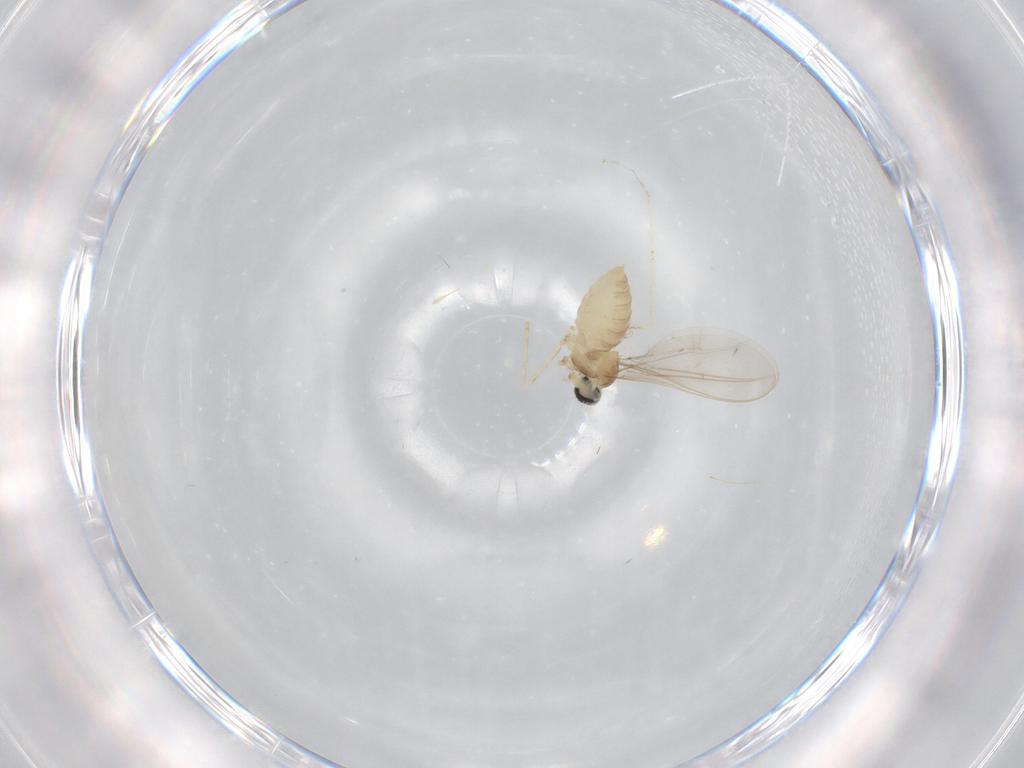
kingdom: Animalia
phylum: Arthropoda
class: Insecta
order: Diptera
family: Cecidomyiidae
